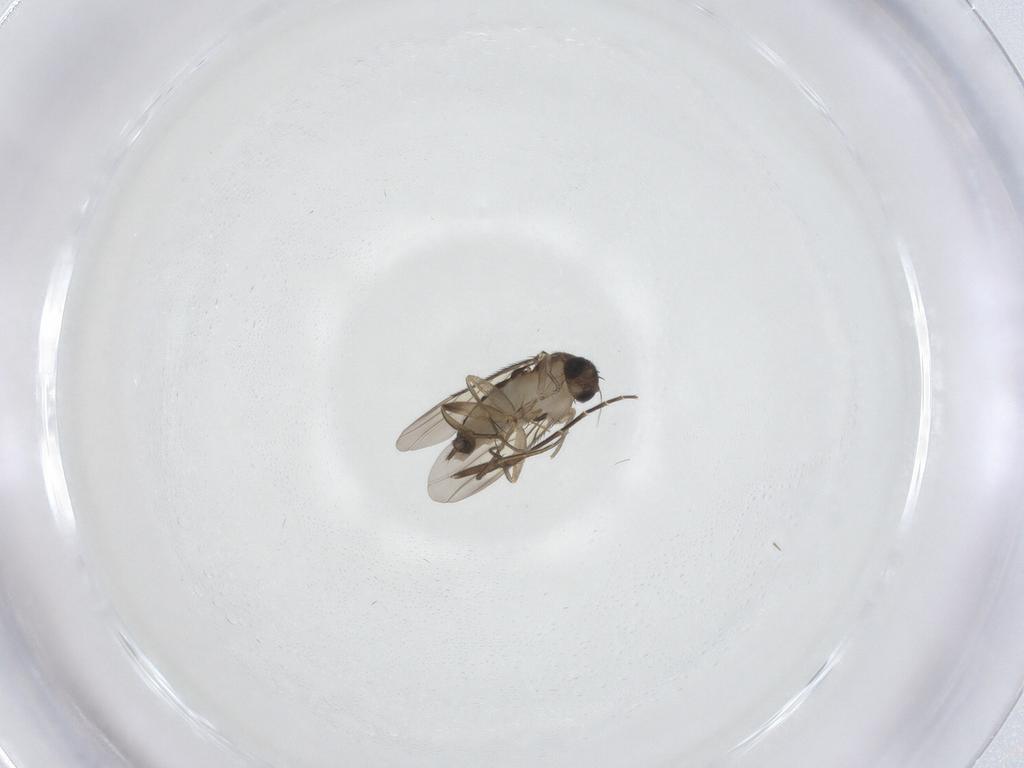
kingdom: Animalia
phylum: Arthropoda
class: Insecta
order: Diptera
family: Phoridae
